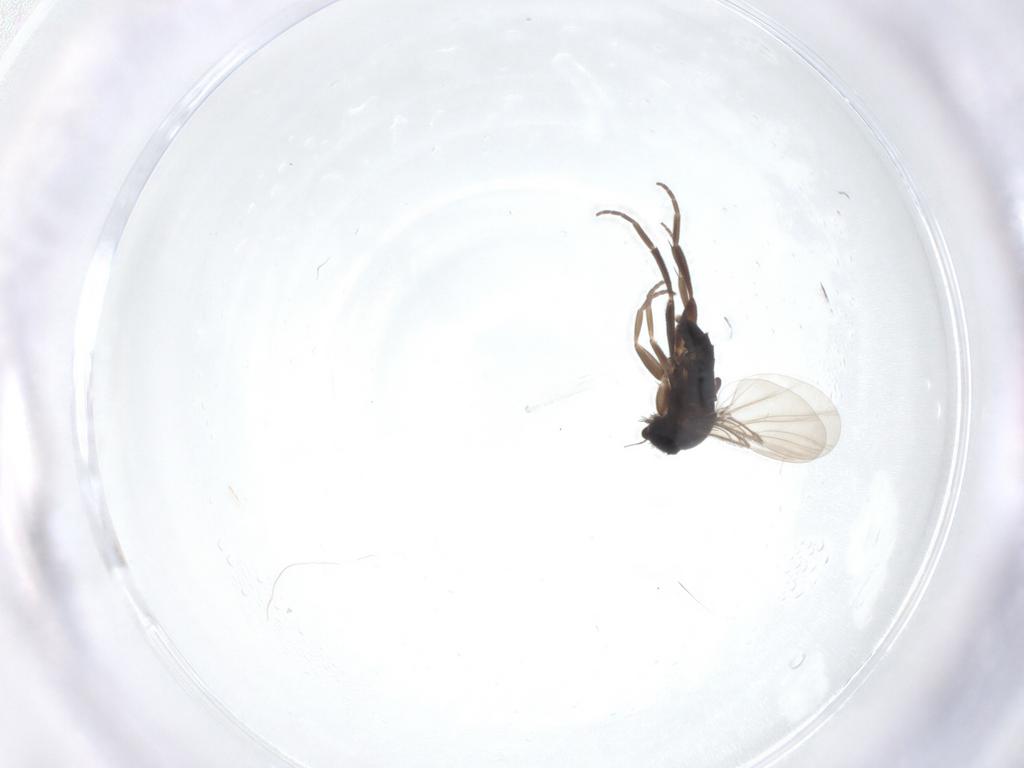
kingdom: Animalia
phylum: Arthropoda
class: Insecta
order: Diptera
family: Phoridae
